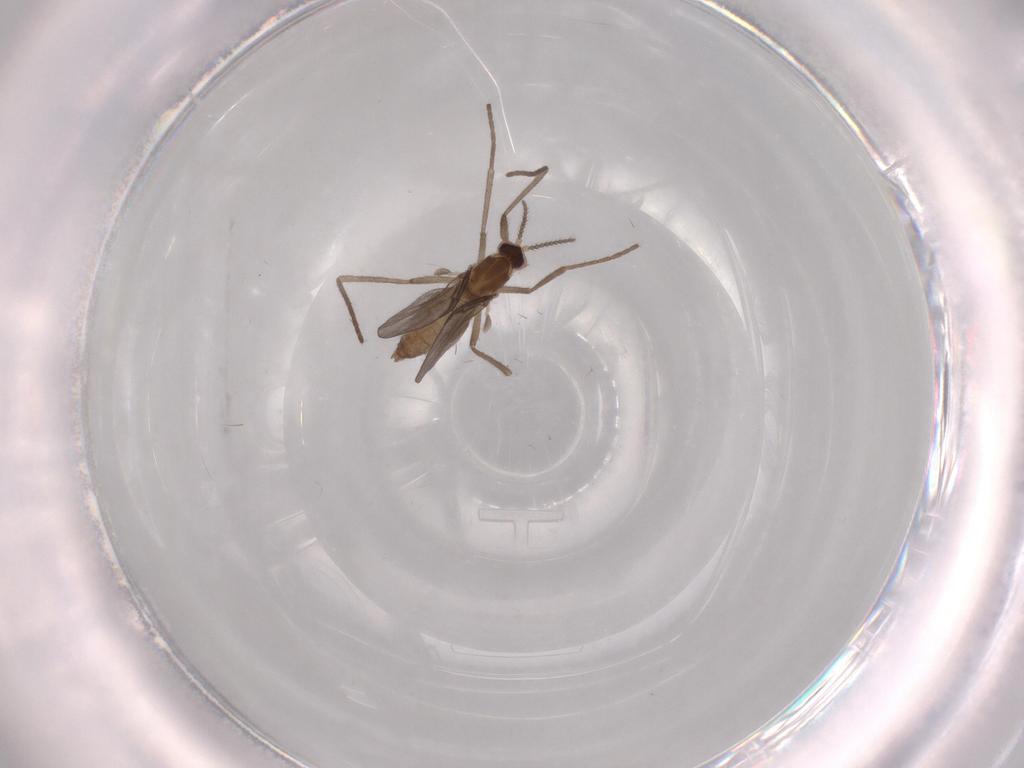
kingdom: Animalia
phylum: Arthropoda
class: Insecta
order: Diptera
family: Cecidomyiidae
